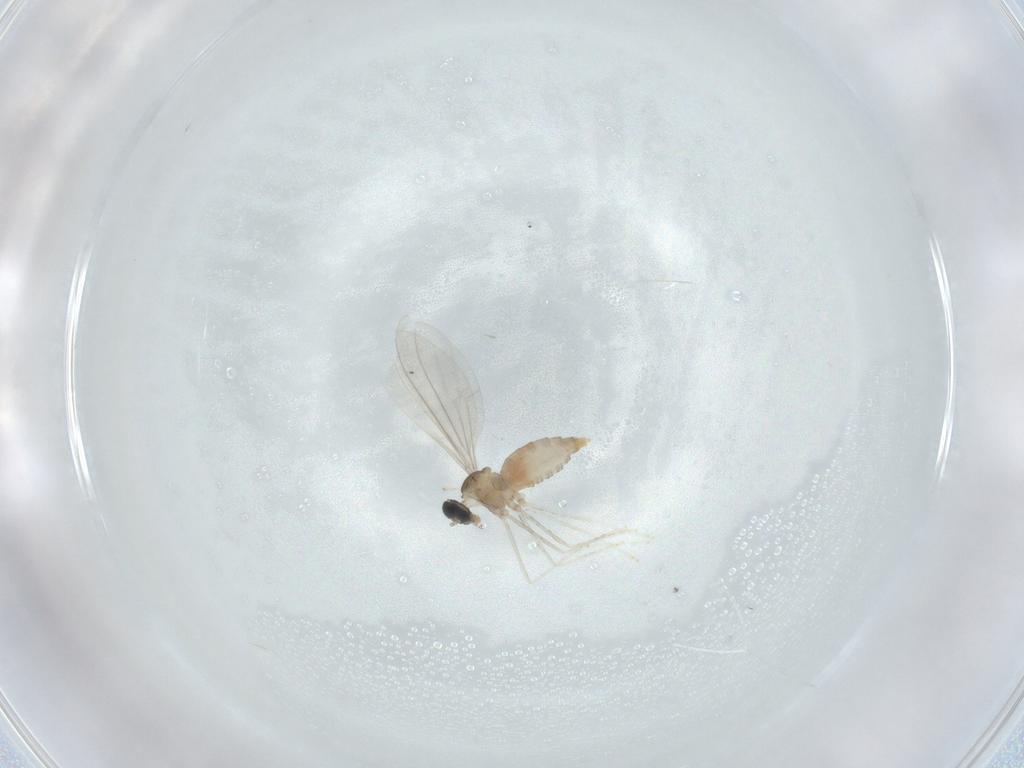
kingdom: Animalia
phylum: Arthropoda
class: Insecta
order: Diptera
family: Cecidomyiidae
